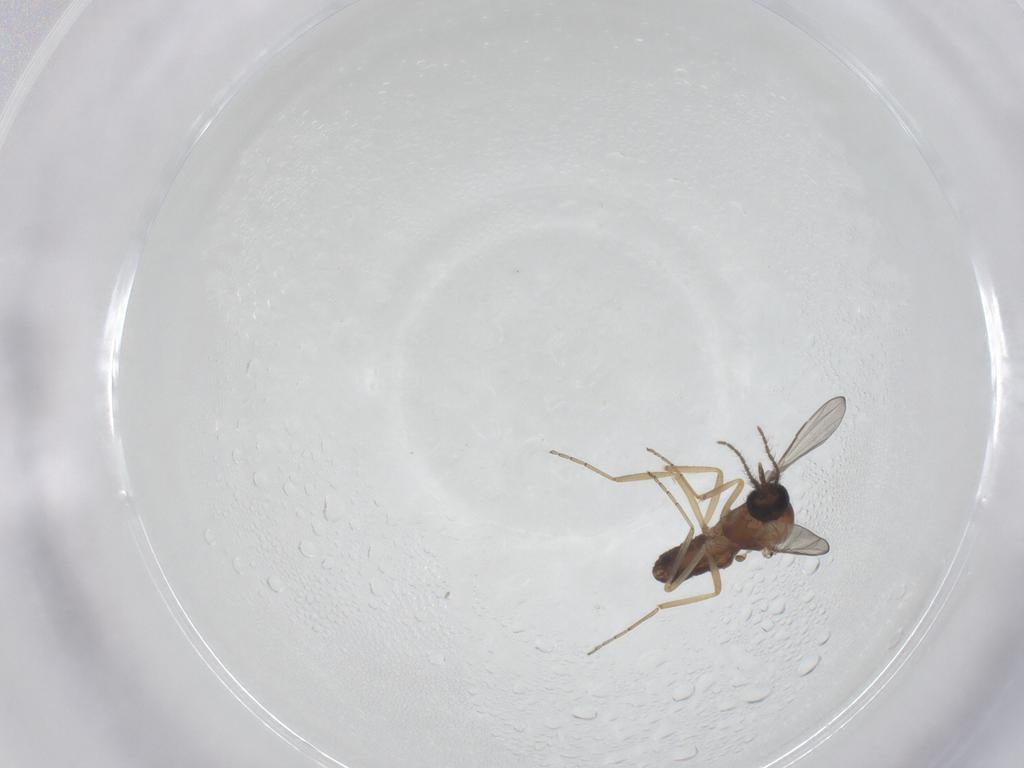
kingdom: Animalia
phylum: Arthropoda
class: Insecta
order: Diptera
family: Ceratopogonidae
